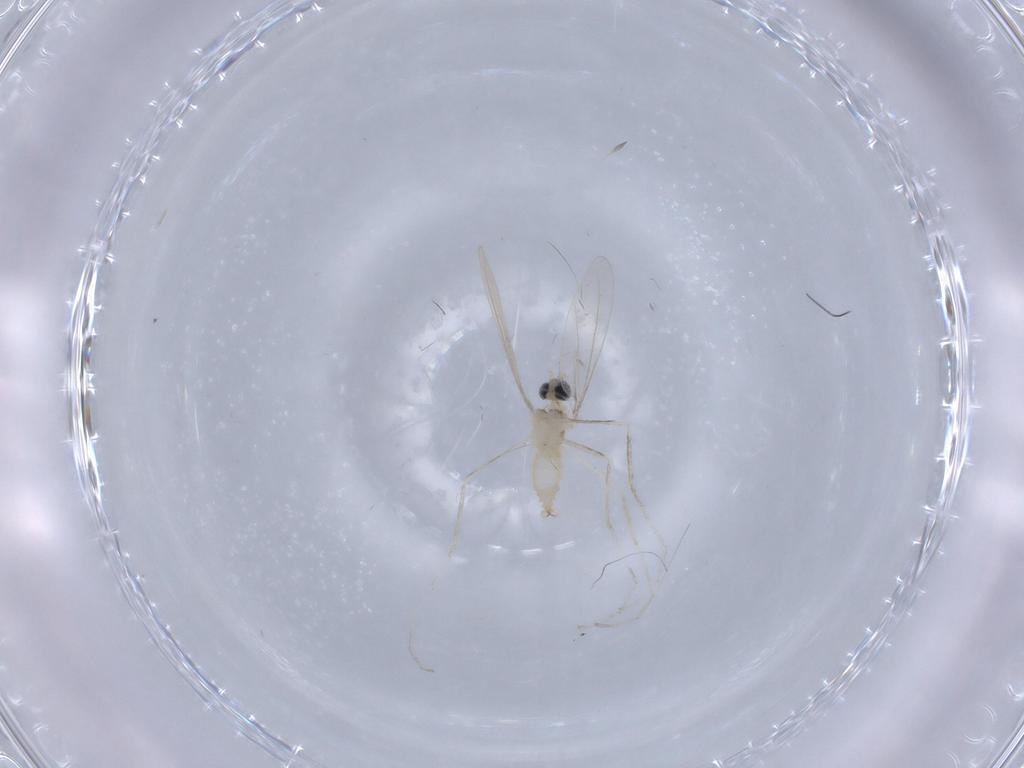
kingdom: Animalia
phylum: Arthropoda
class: Insecta
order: Diptera
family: Cecidomyiidae
